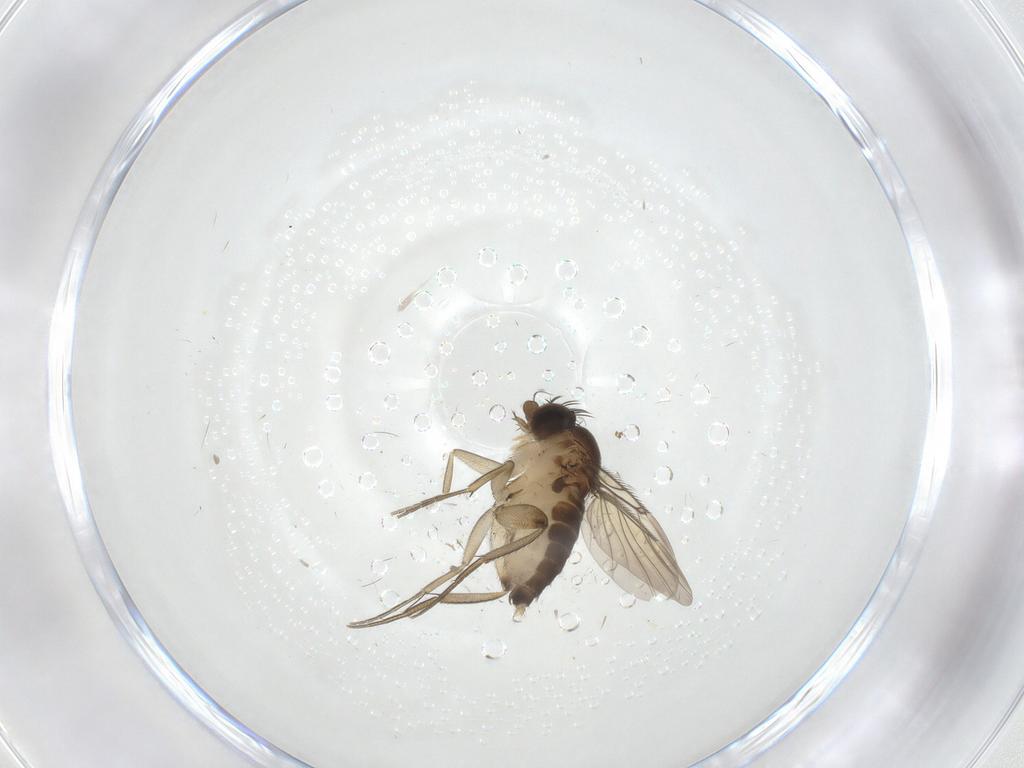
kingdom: Animalia
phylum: Arthropoda
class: Insecta
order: Diptera
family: Phoridae
